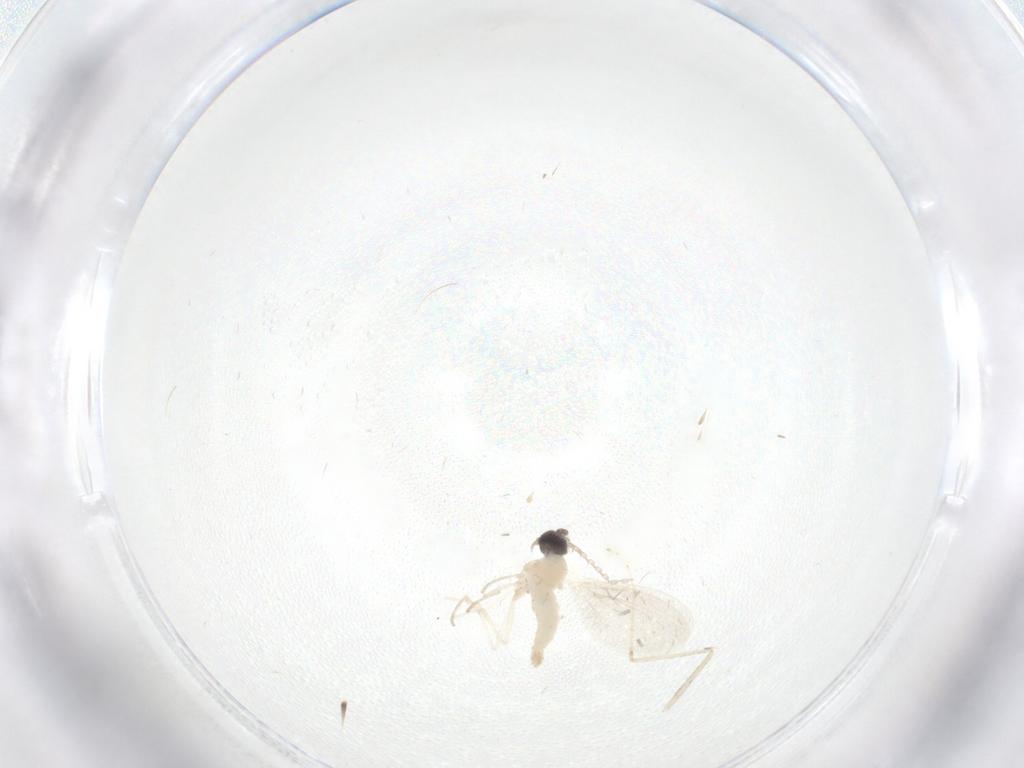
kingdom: Animalia
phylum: Arthropoda
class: Insecta
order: Diptera
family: Cecidomyiidae
